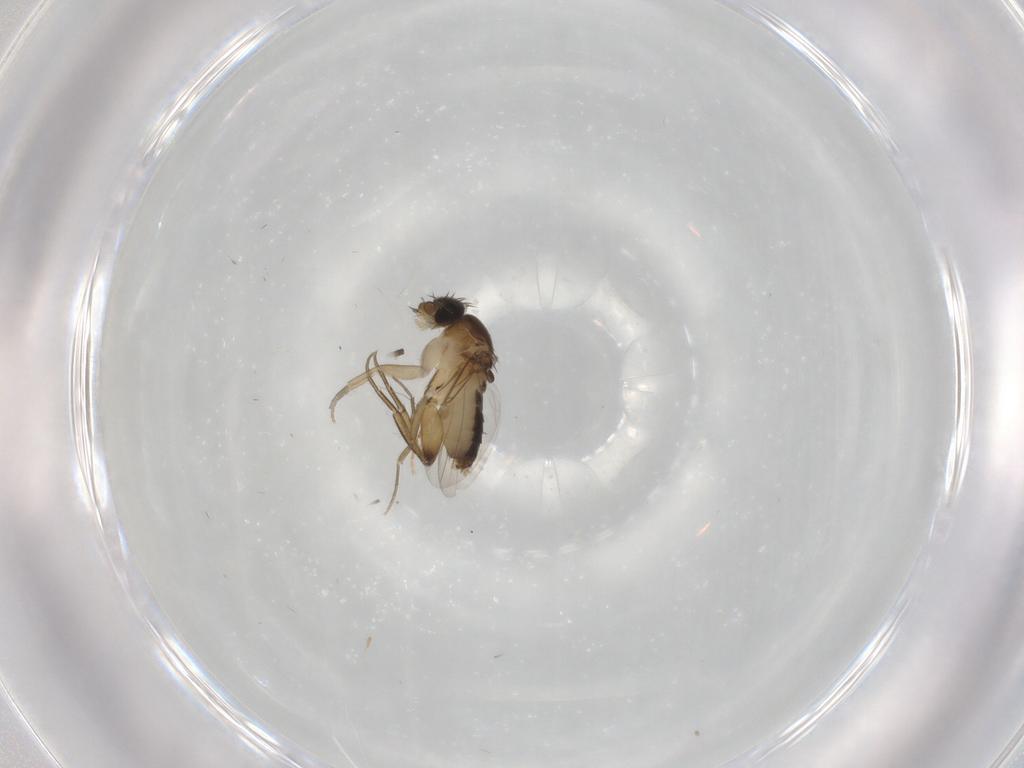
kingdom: Animalia
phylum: Arthropoda
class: Insecta
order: Diptera
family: Phoridae
